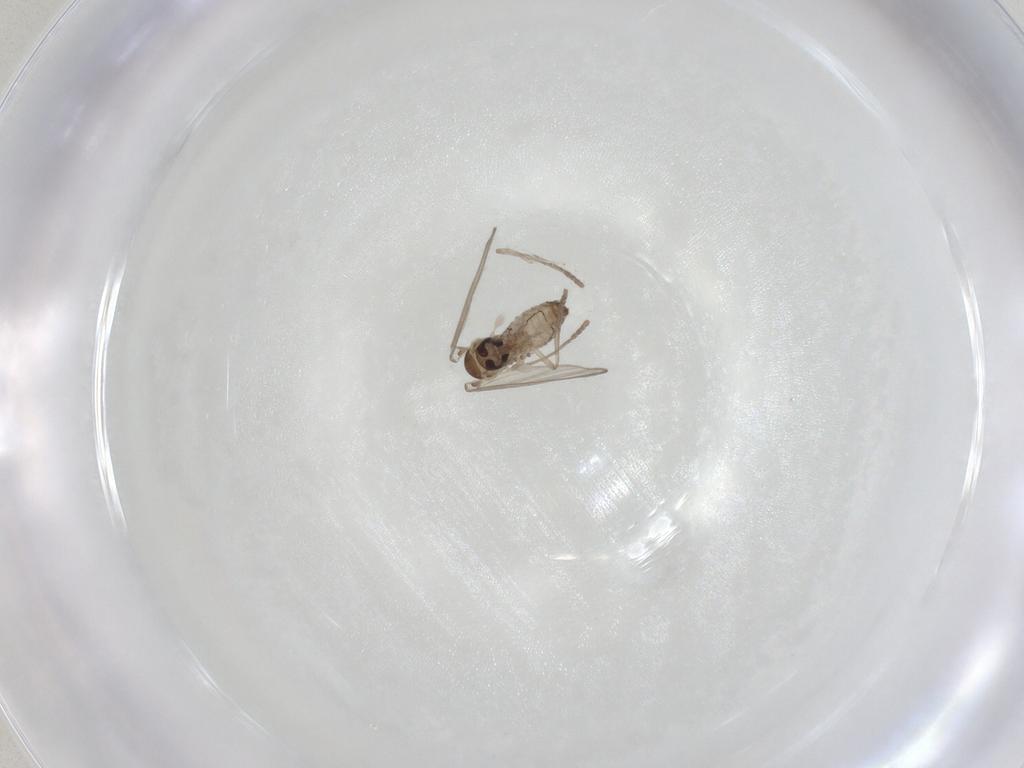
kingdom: Animalia
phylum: Arthropoda
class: Insecta
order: Diptera
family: Psychodidae
